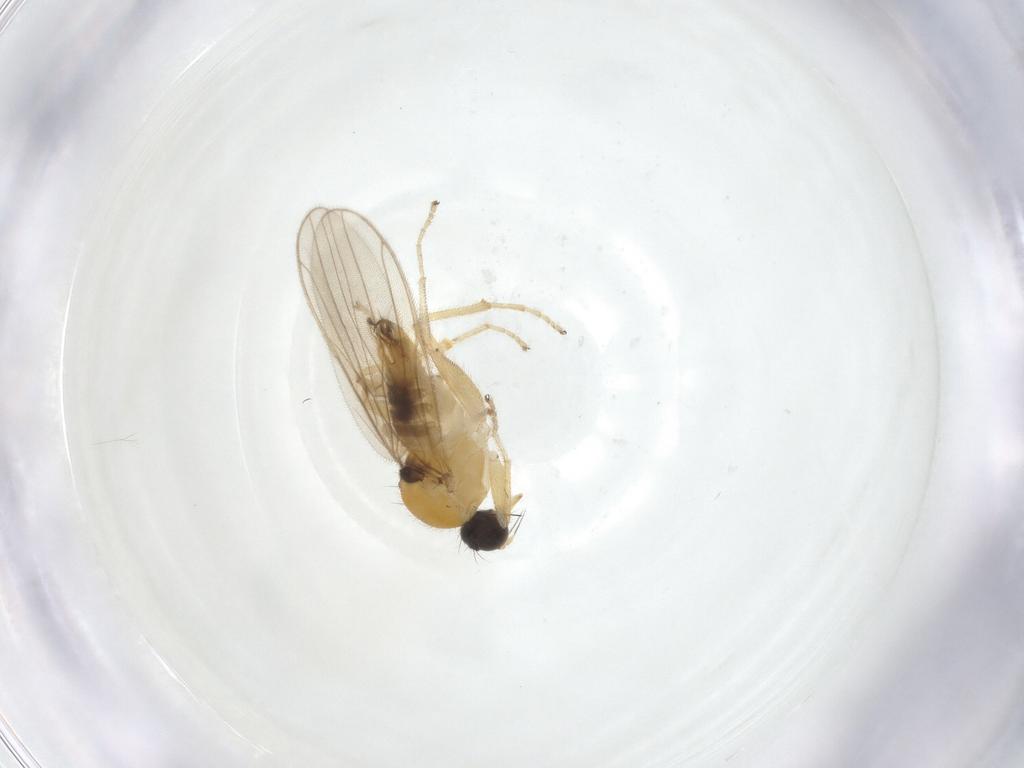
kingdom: Animalia
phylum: Arthropoda
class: Insecta
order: Diptera
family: Hybotidae
